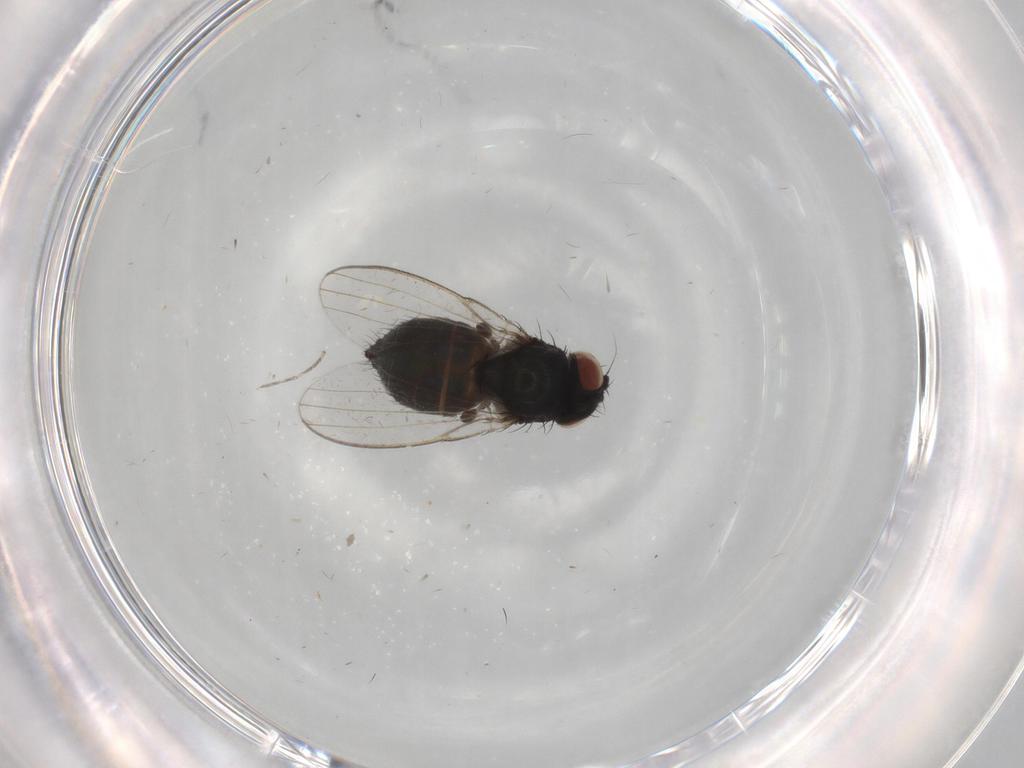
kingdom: Animalia
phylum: Arthropoda
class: Insecta
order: Diptera
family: Milichiidae
